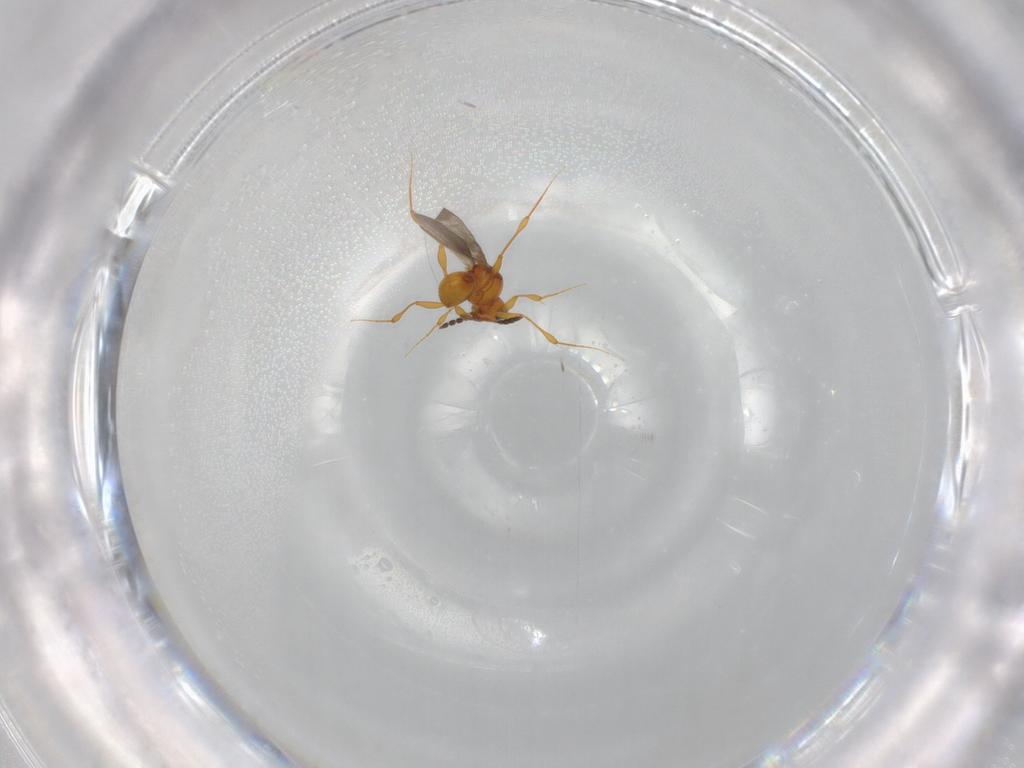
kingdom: Animalia
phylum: Arthropoda
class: Insecta
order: Hymenoptera
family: Platygastridae
